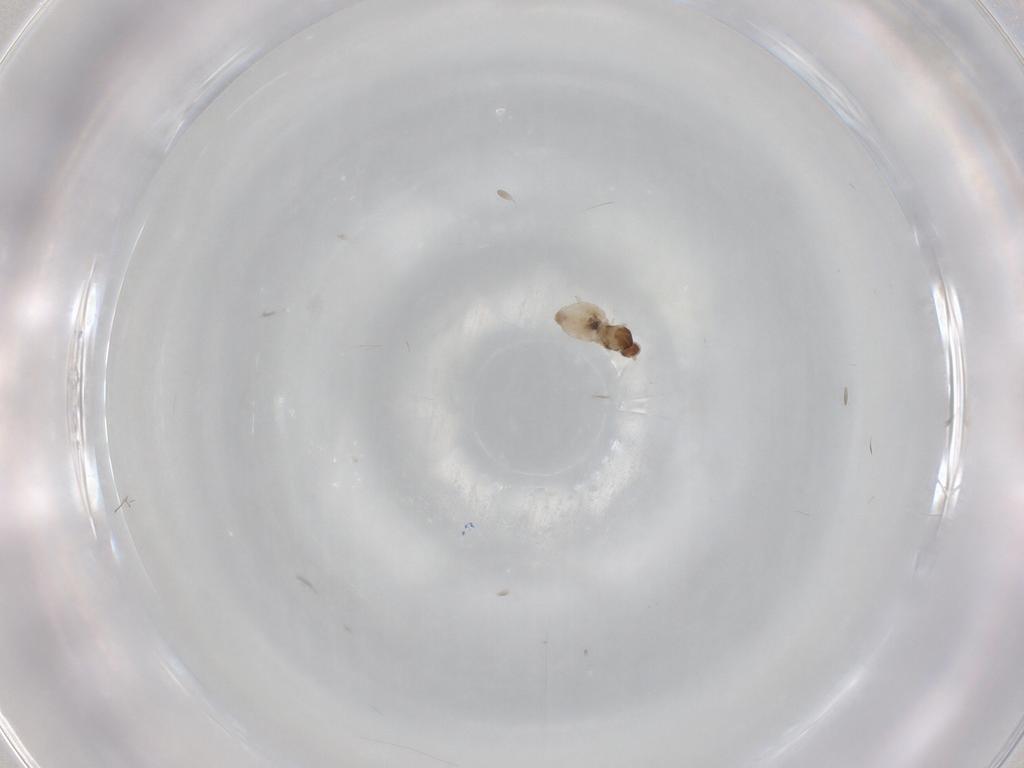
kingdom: Animalia
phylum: Arthropoda
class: Insecta
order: Diptera
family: Cecidomyiidae
